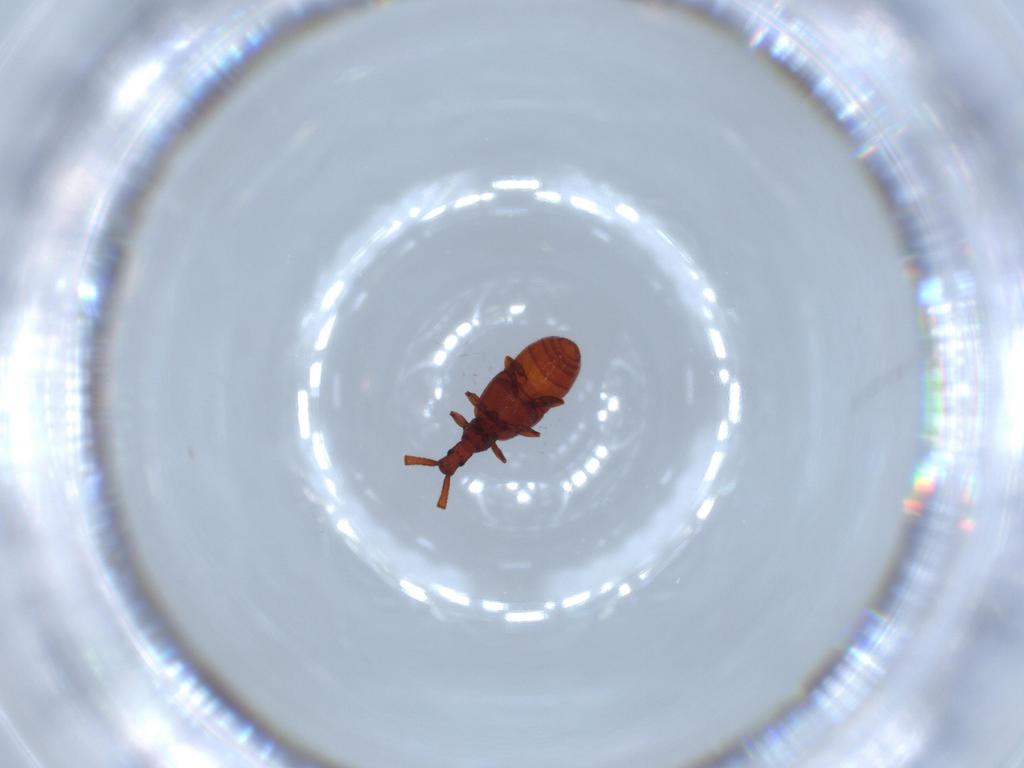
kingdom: Animalia
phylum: Arthropoda
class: Insecta
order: Coleoptera
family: Staphylinidae
